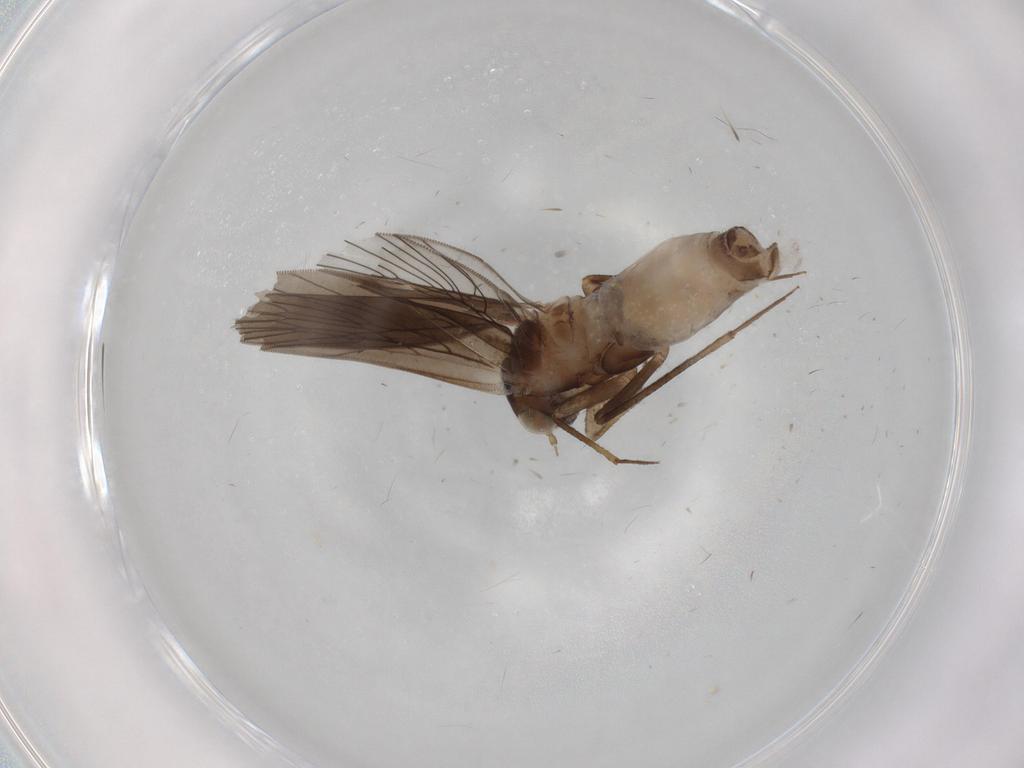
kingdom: Animalia
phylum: Arthropoda
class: Insecta
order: Psocodea
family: Lepidopsocidae
